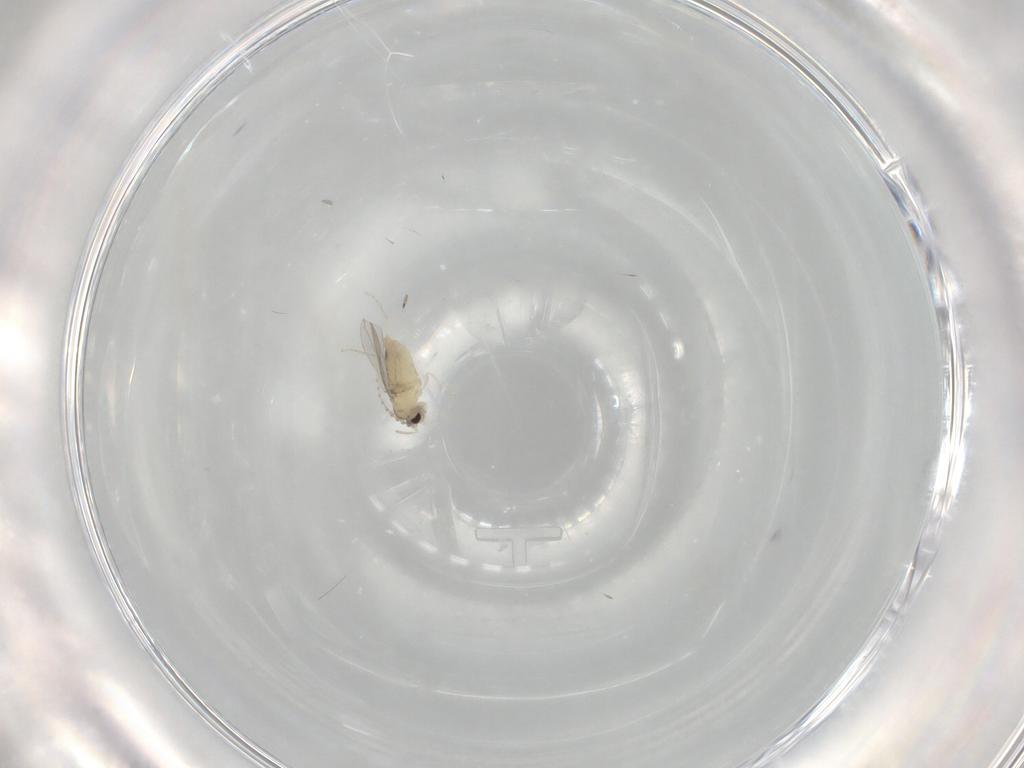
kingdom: Animalia
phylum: Arthropoda
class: Insecta
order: Diptera
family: Cecidomyiidae
